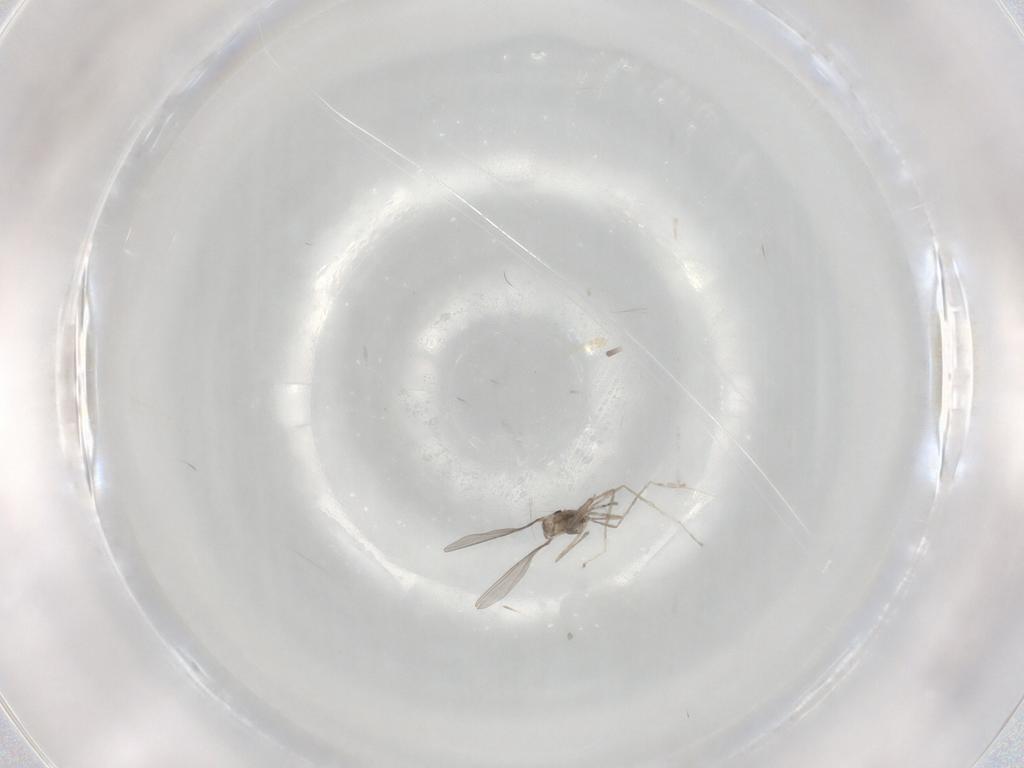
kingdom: Animalia
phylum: Arthropoda
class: Insecta
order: Diptera
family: Cecidomyiidae
